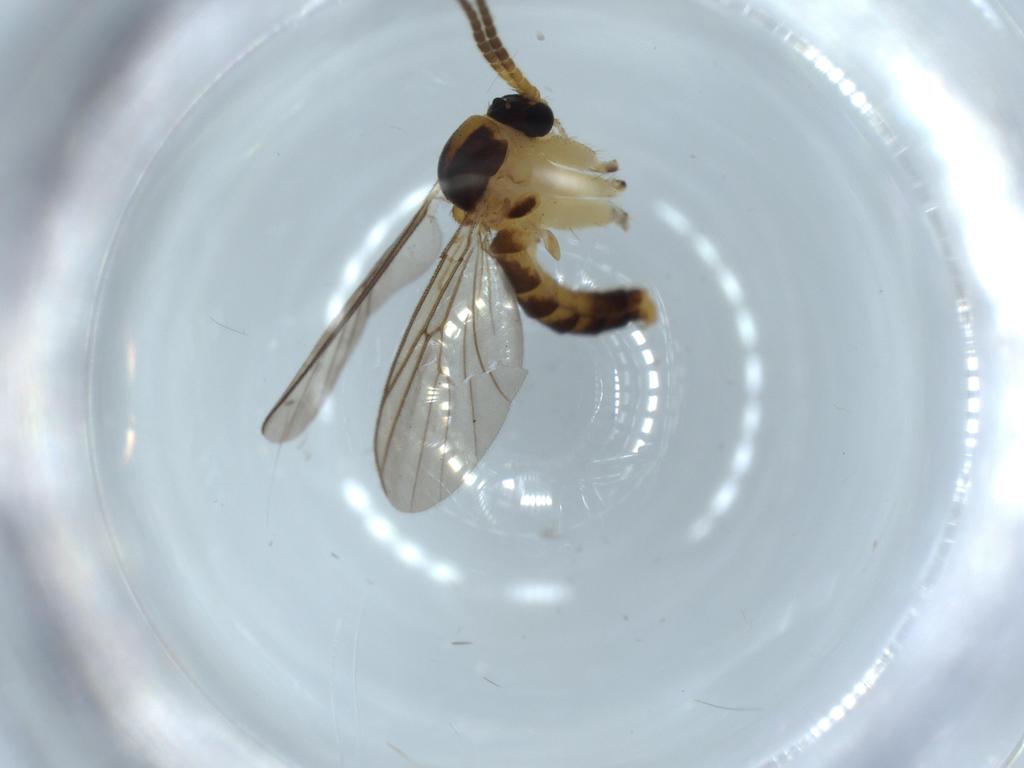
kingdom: Animalia
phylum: Arthropoda
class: Insecta
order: Diptera
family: Mycetophilidae
